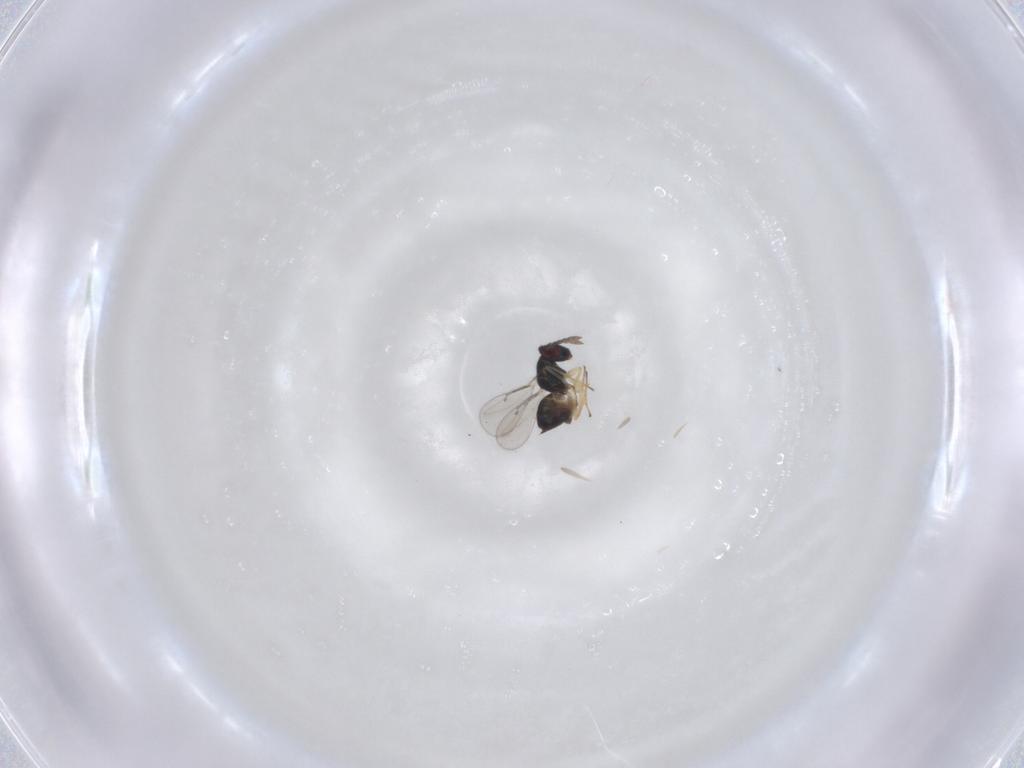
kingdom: Animalia
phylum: Arthropoda
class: Insecta
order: Hymenoptera
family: Eulophidae
